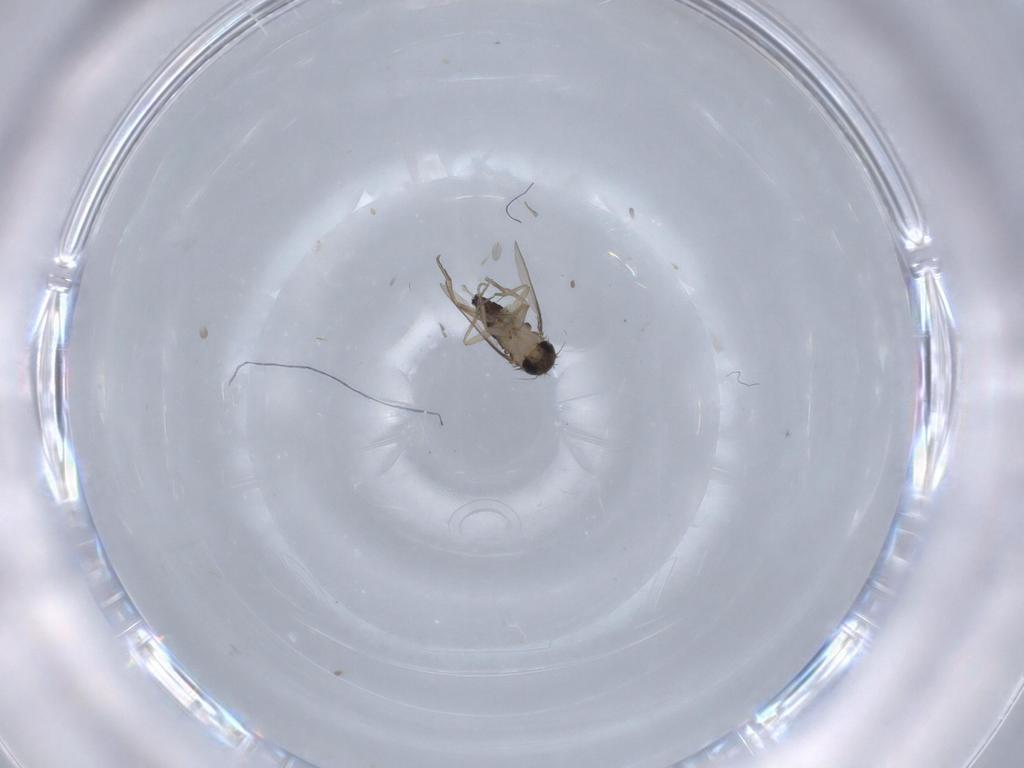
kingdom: Animalia
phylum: Arthropoda
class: Insecta
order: Diptera
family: Phoridae
